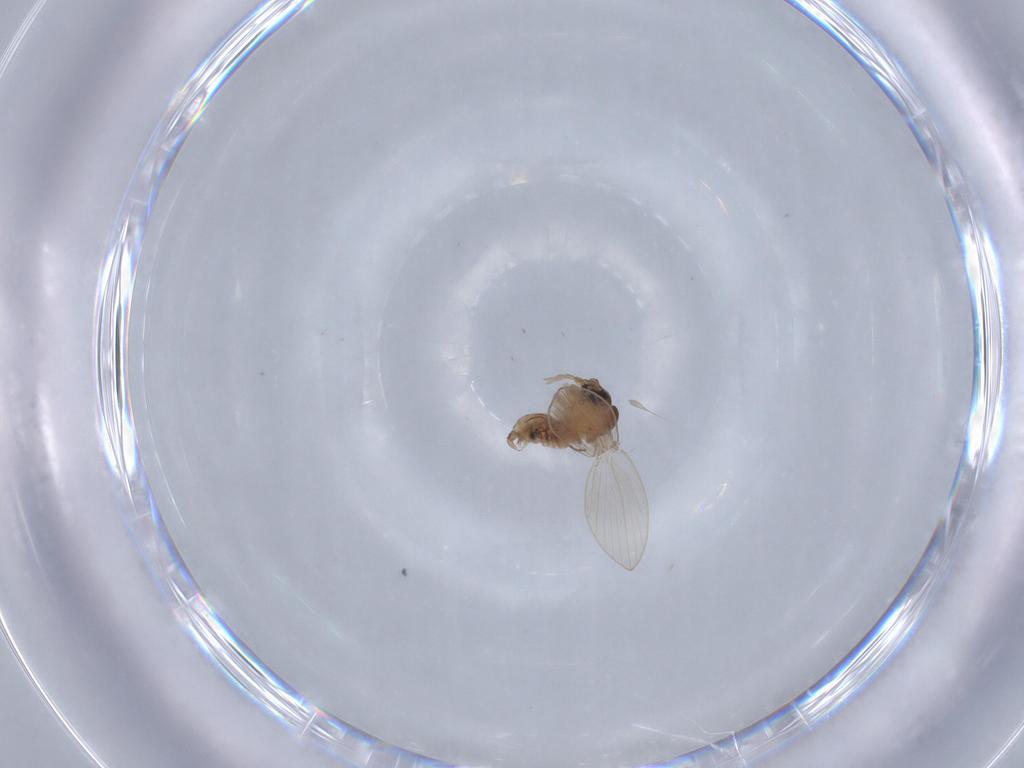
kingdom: Animalia
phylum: Arthropoda
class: Insecta
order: Diptera
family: Psychodidae
